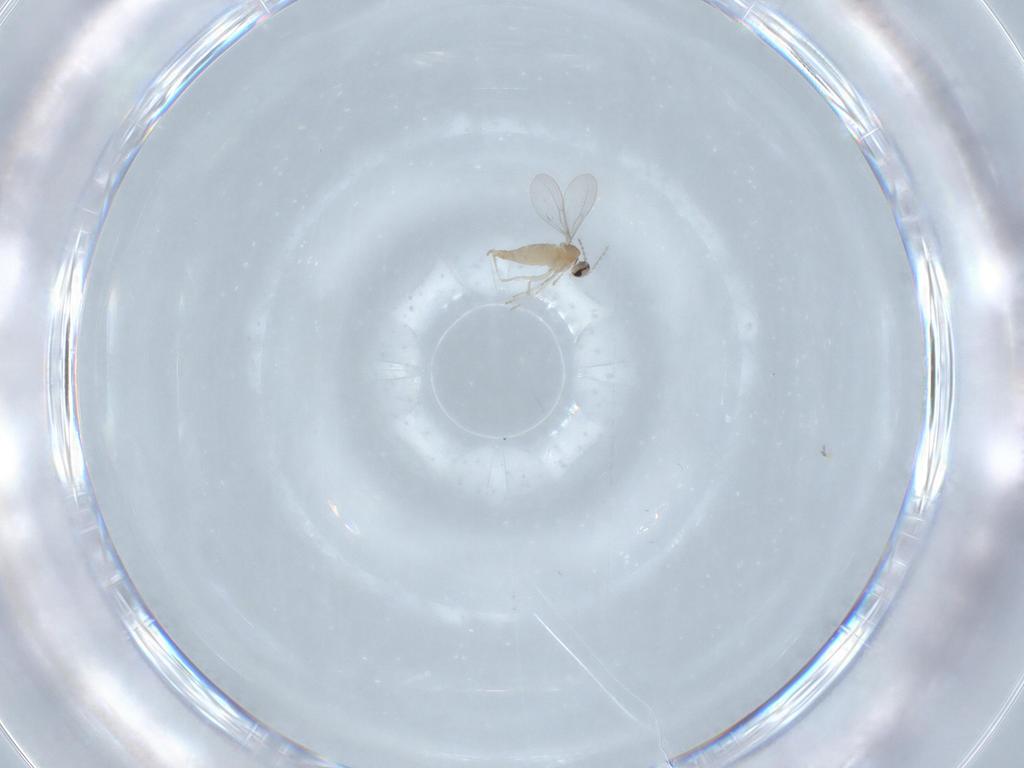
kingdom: Animalia
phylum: Arthropoda
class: Insecta
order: Diptera
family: Cecidomyiidae
